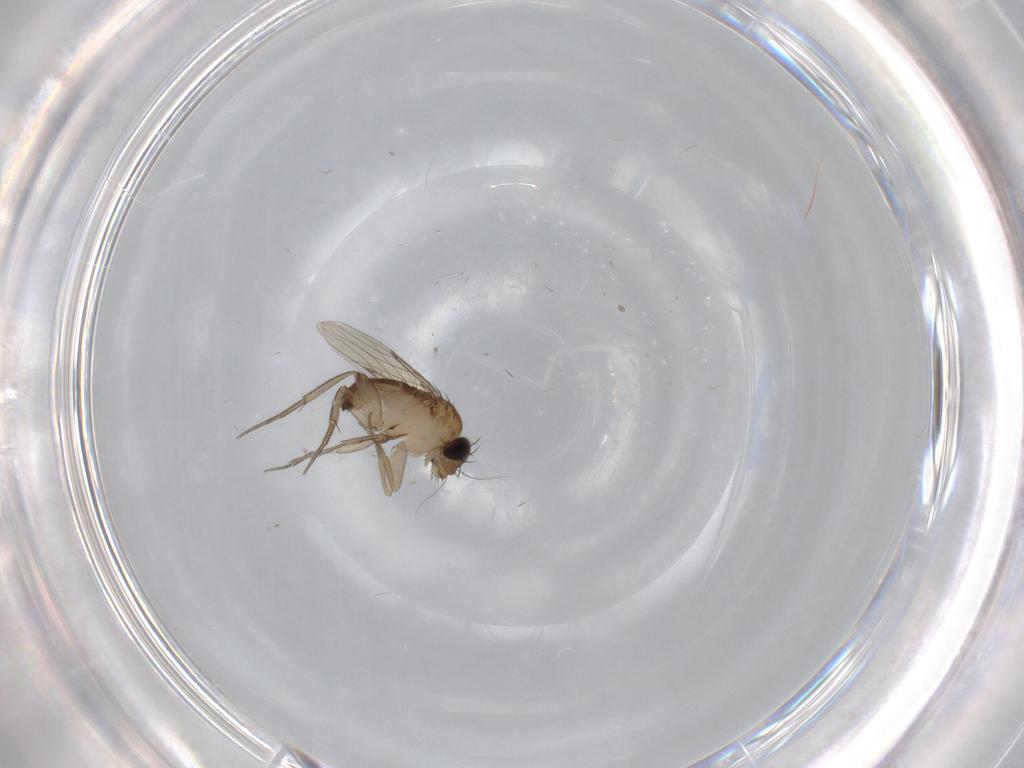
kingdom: Animalia
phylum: Arthropoda
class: Insecta
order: Diptera
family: Phoridae
